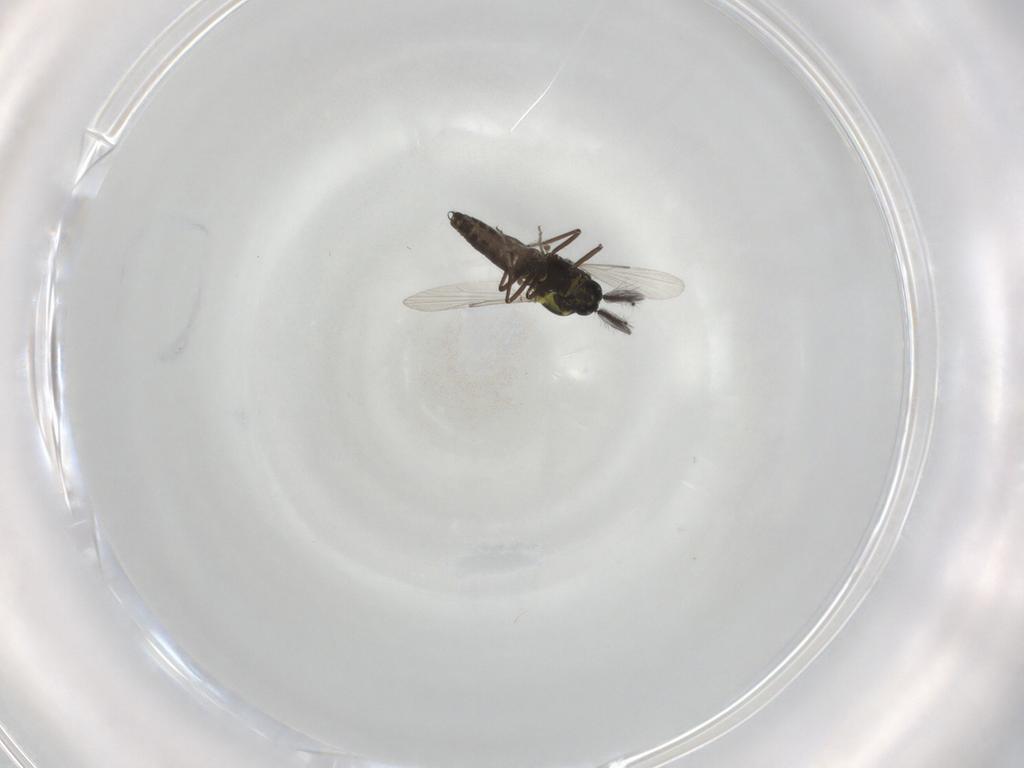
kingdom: Animalia
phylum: Arthropoda
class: Insecta
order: Diptera
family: Ceratopogonidae
